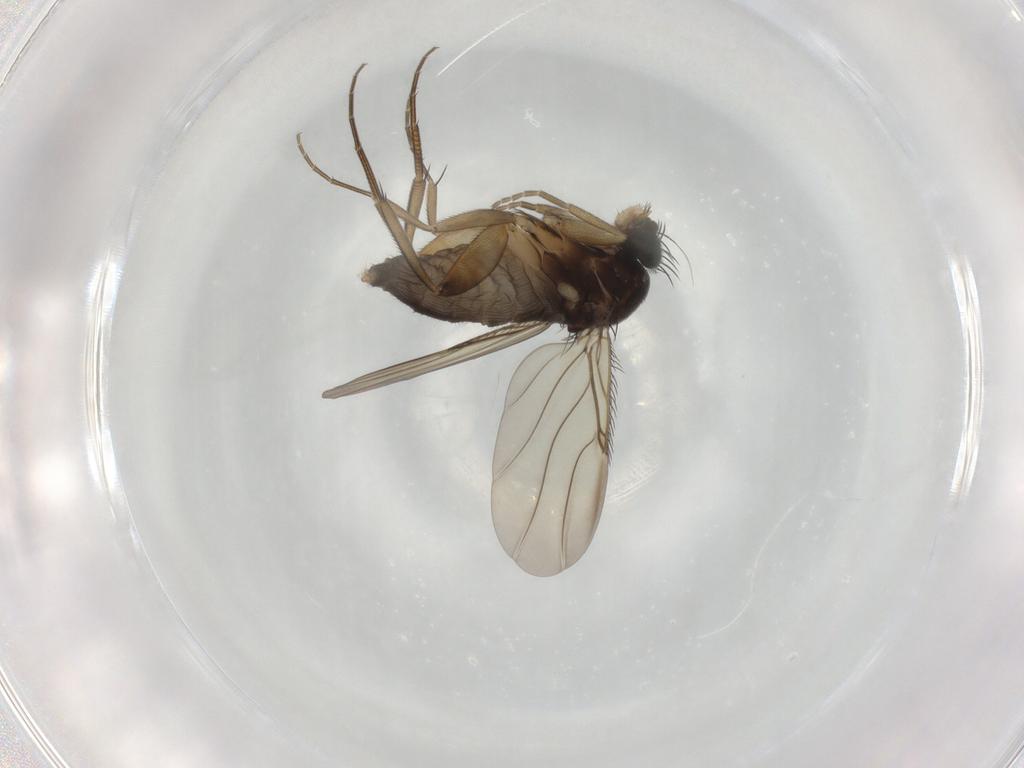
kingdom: Animalia
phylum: Arthropoda
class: Insecta
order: Diptera
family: Phoridae
